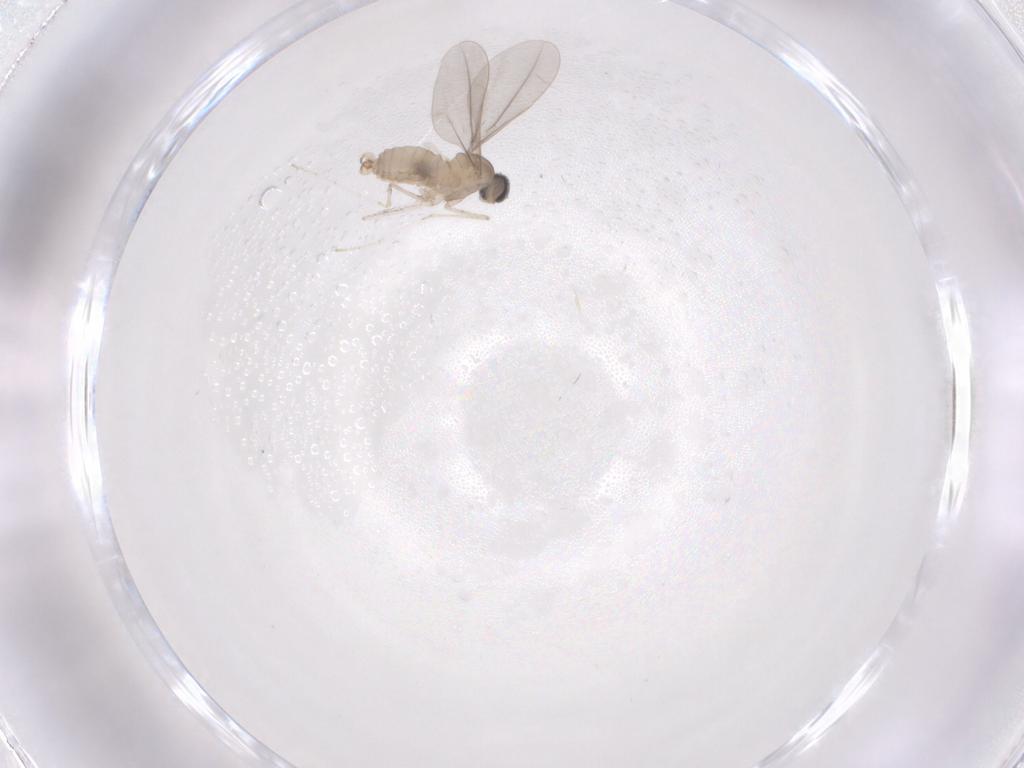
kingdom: Animalia
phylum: Arthropoda
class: Insecta
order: Diptera
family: Cecidomyiidae
